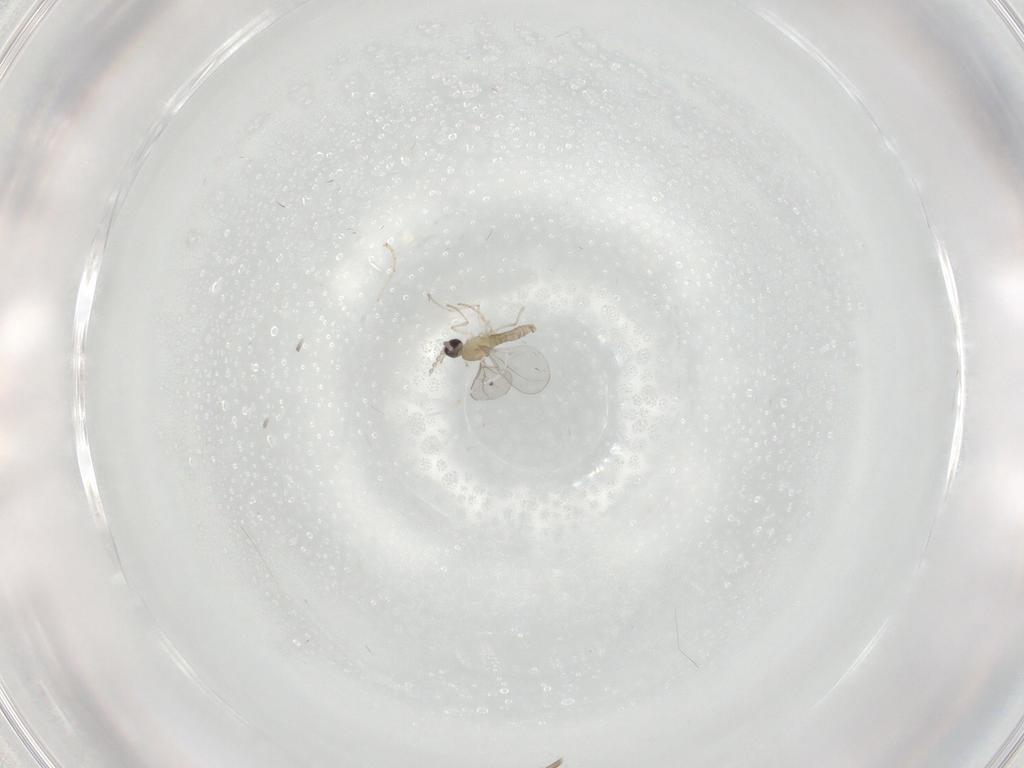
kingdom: Animalia
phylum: Arthropoda
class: Insecta
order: Diptera
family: Cecidomyiidae
